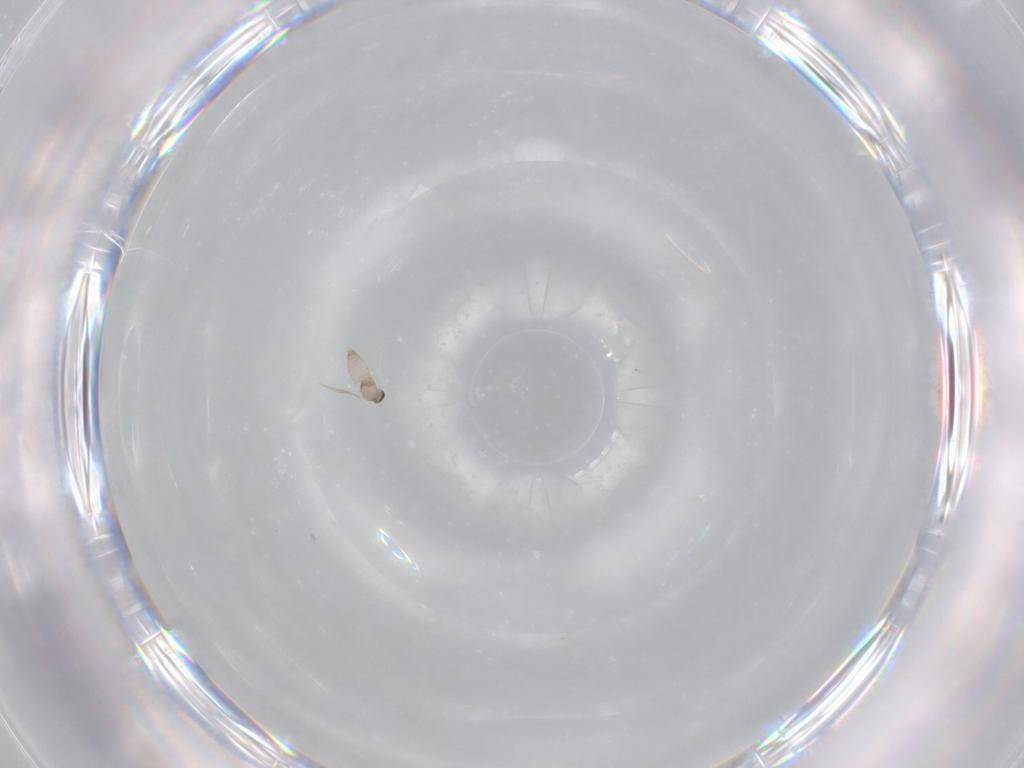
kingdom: Animalia
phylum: Arthropoda
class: Insecta
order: Diptera
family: Cecidomyiidae
